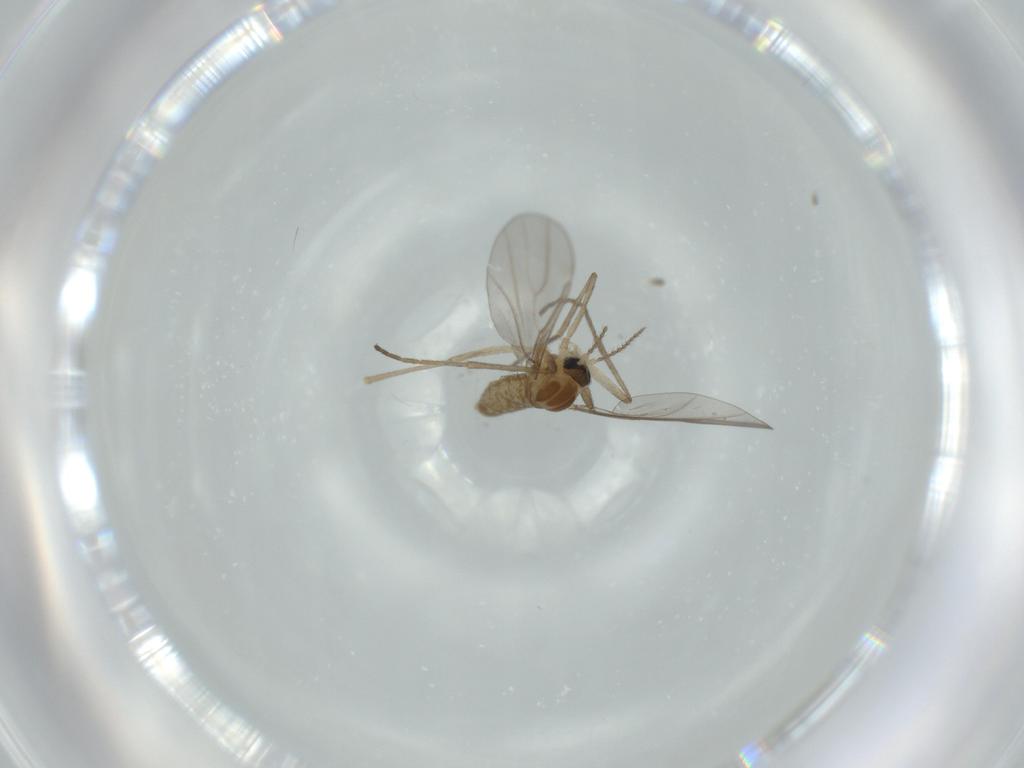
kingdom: Animalia
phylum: Arthropoda
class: Insecta
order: Diptera
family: Cecidomyiidae
